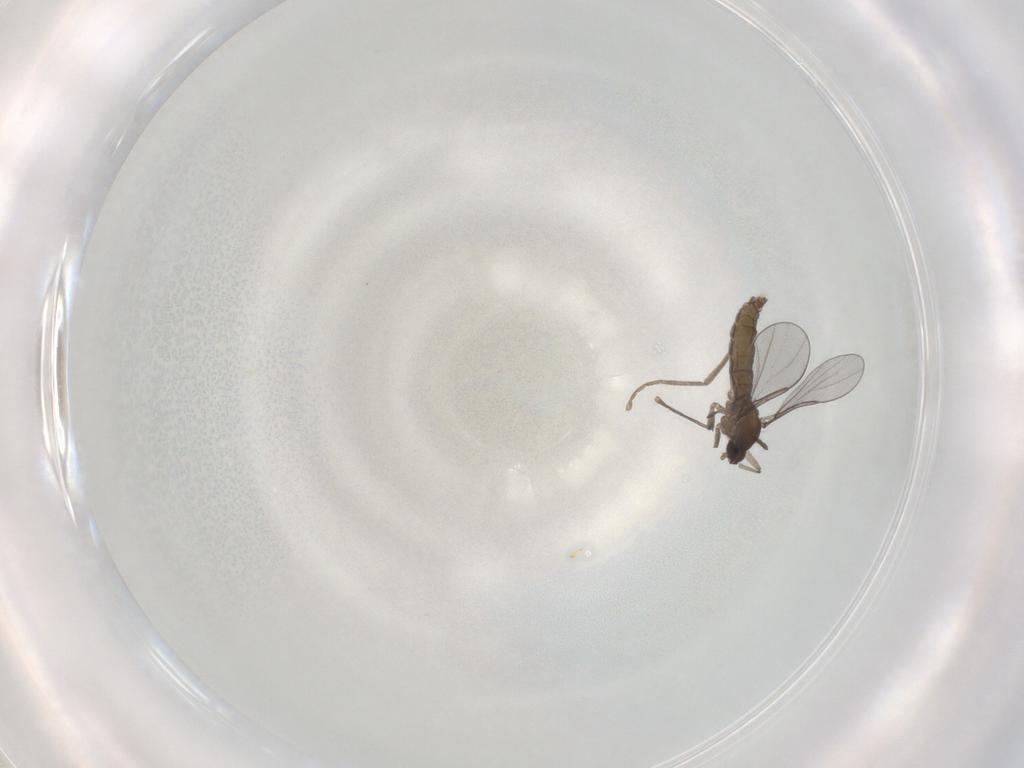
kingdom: Animalia
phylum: Arthropoda
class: Insecta
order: Diptera
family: Cecidomyiidae
